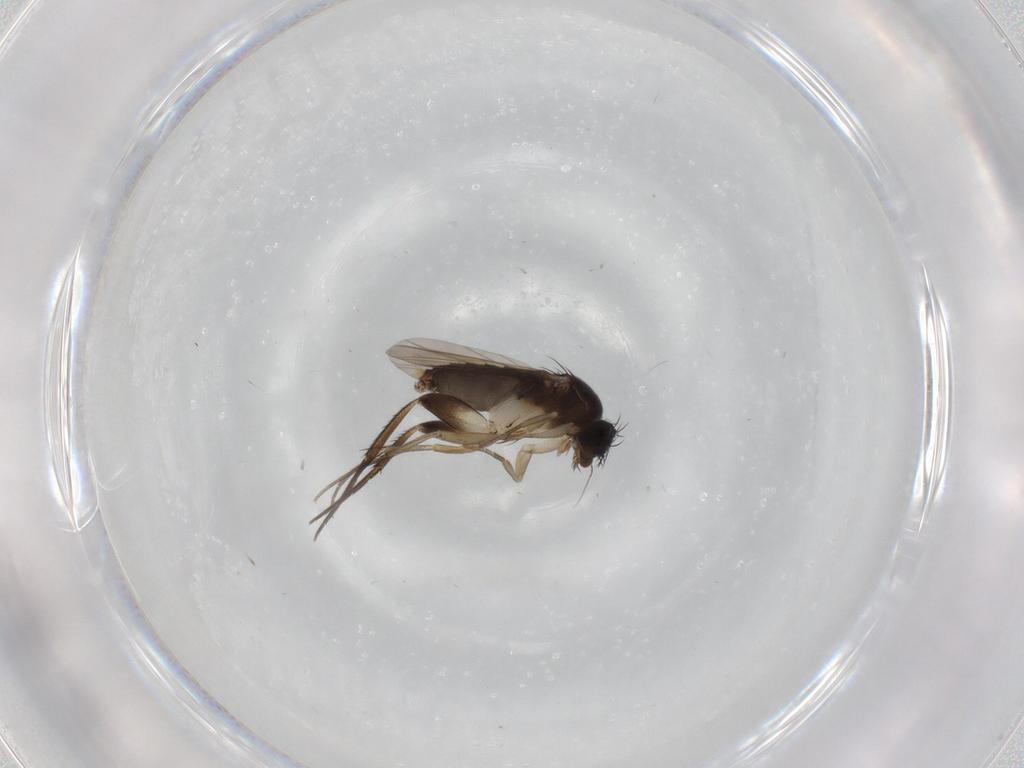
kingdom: Animalia
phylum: Arthropoda
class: Insecta
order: Diptera
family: Phoridae
